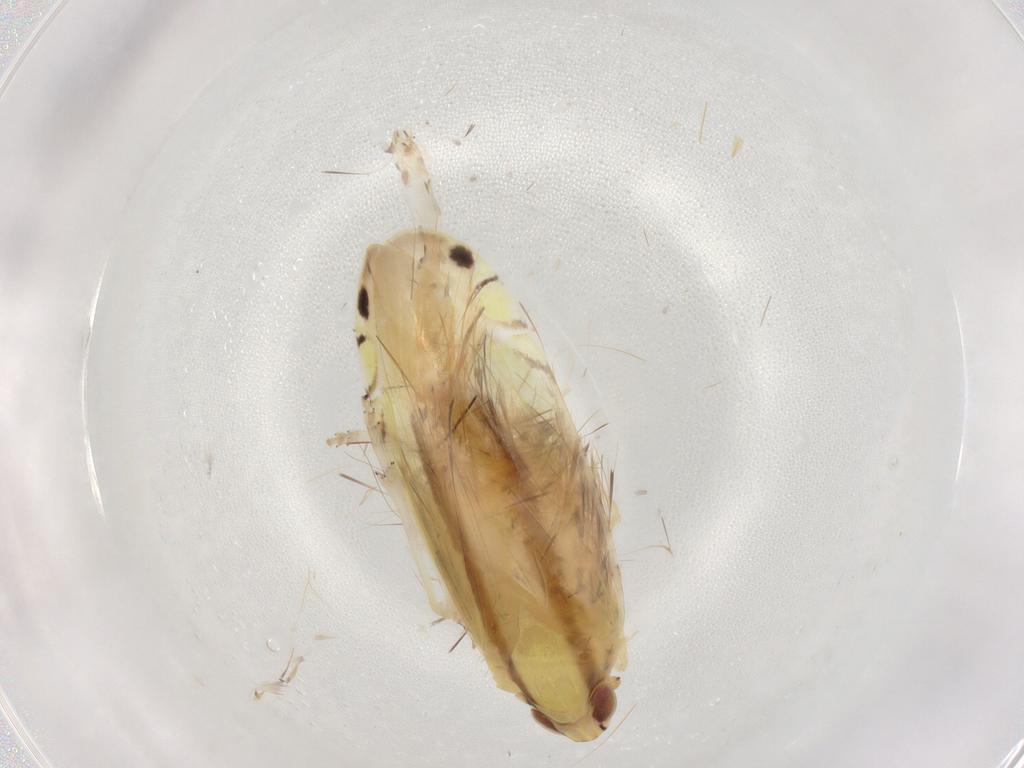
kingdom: Animalia
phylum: Arthropoda
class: Insecta
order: Hemiptera
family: Achilidae
